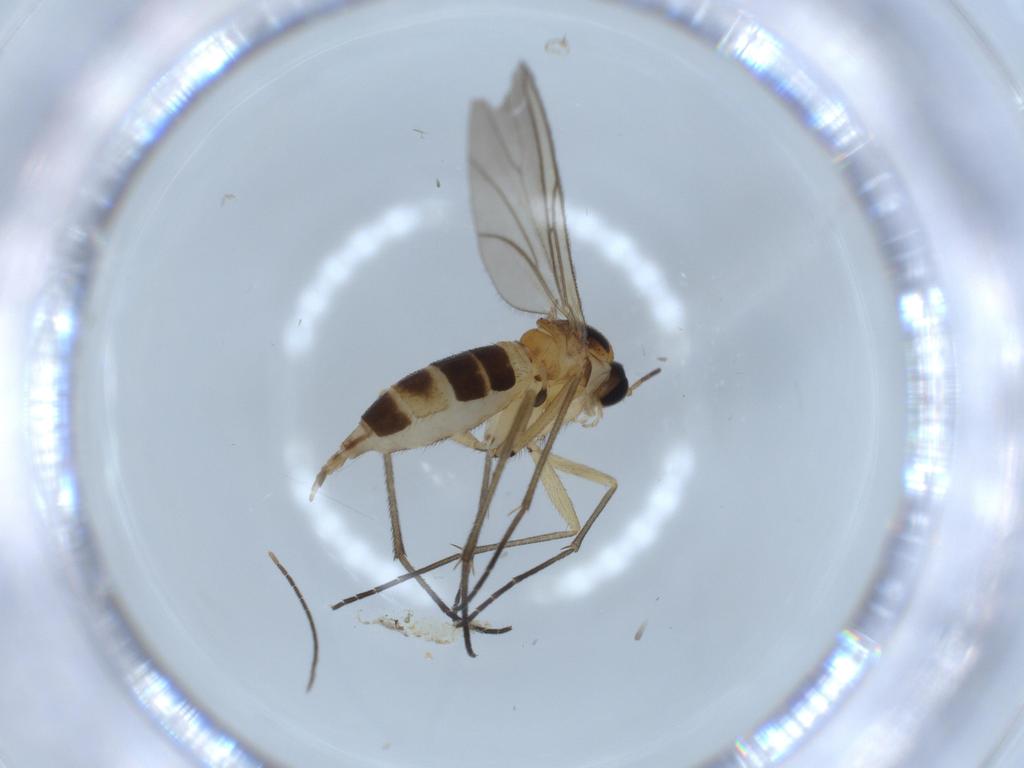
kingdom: Animalia
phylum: Arthropoda
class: Insecta
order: Diptera
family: Sciaridae
